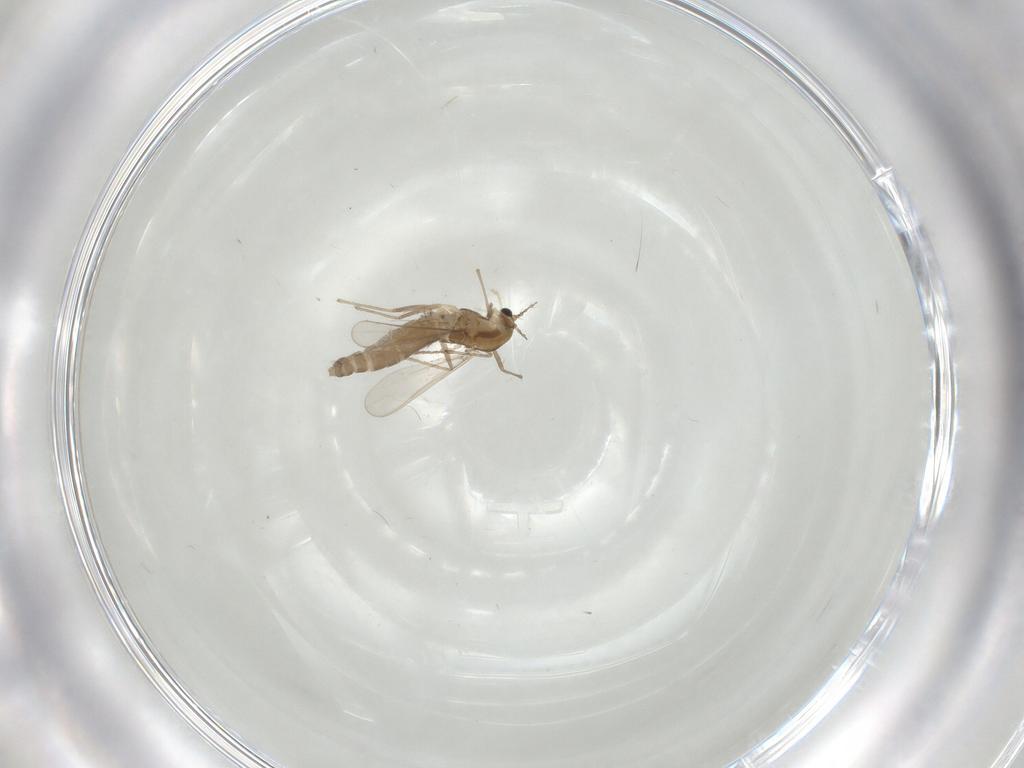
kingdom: Animalia
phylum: Arthropoda
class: Insecta
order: Diptera
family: Chironomidae
